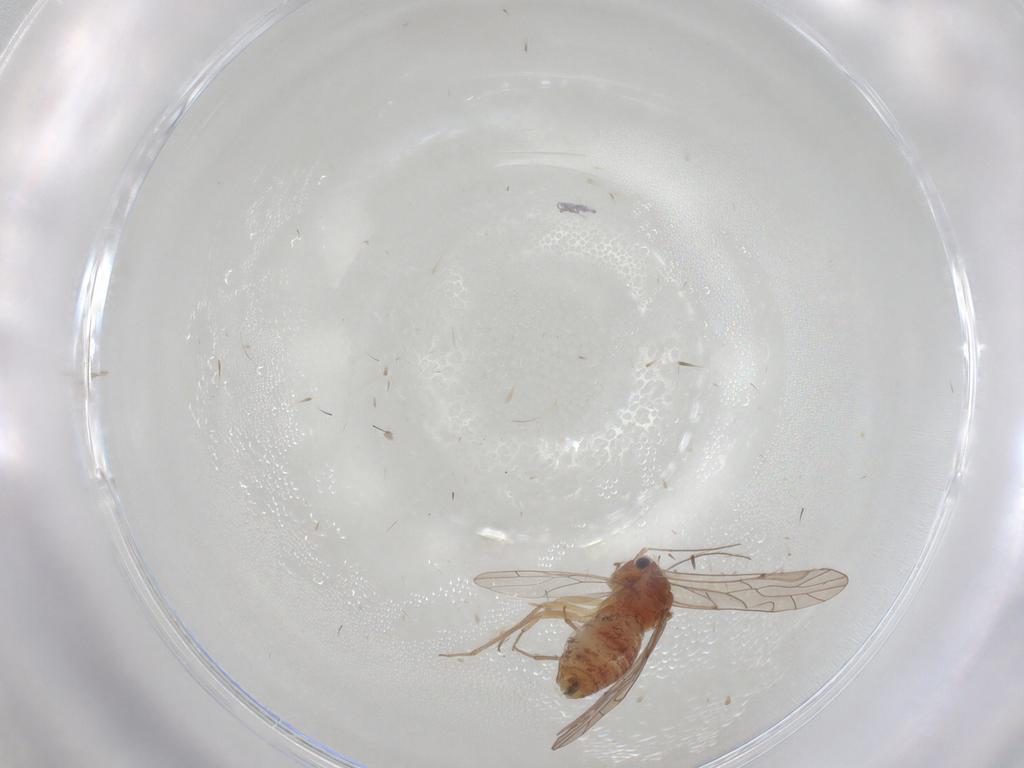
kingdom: Animalia
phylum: Arthropoda
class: Insecta
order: Psocodea
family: Lachesillidae
